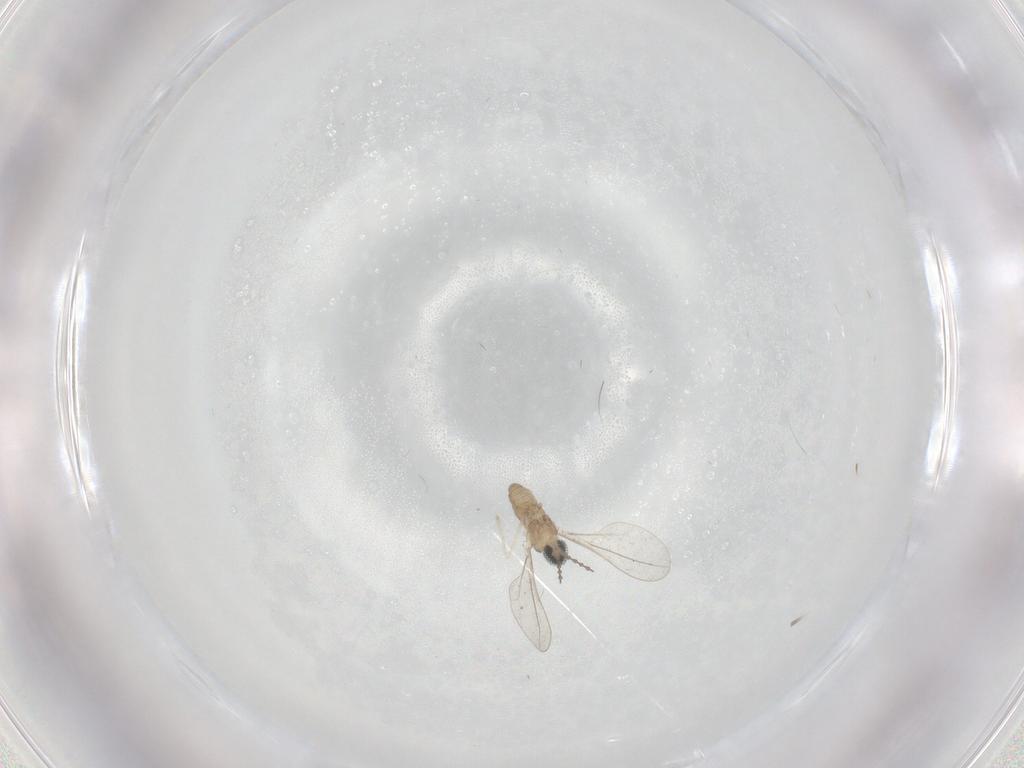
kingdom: Animalia
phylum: Arthropoda
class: Insecta
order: Diptera
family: Cecidomyiidae
